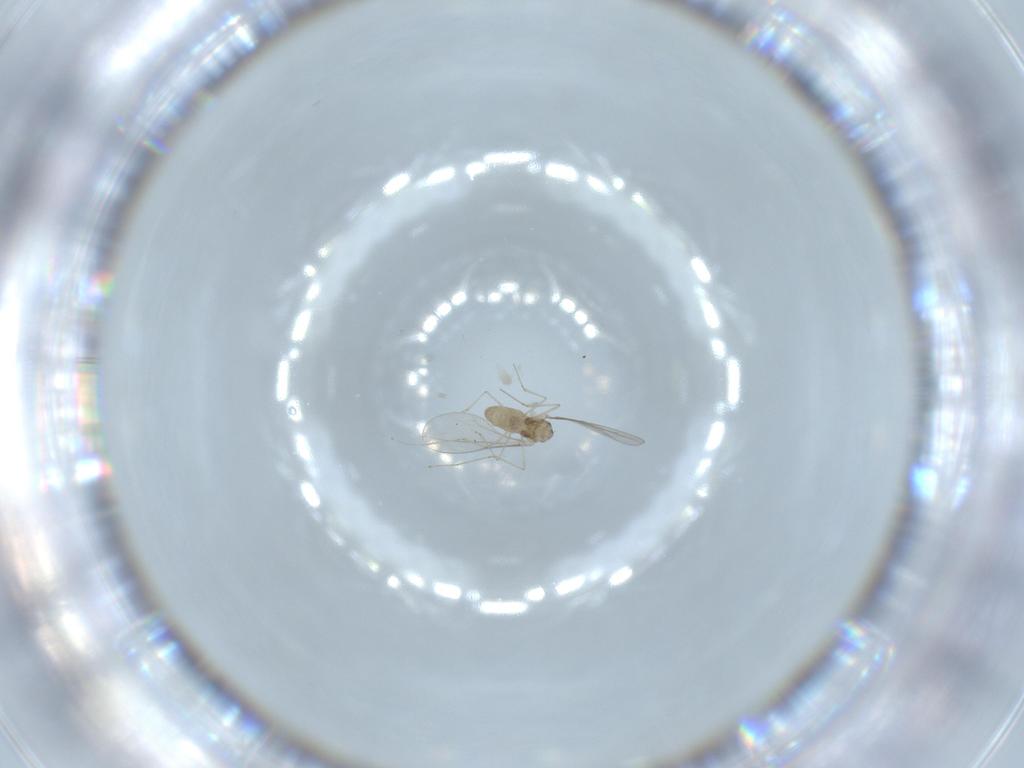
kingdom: Animalia
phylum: Arthropoda
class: Insecta
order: Diptera
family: Cecidomyiidae
